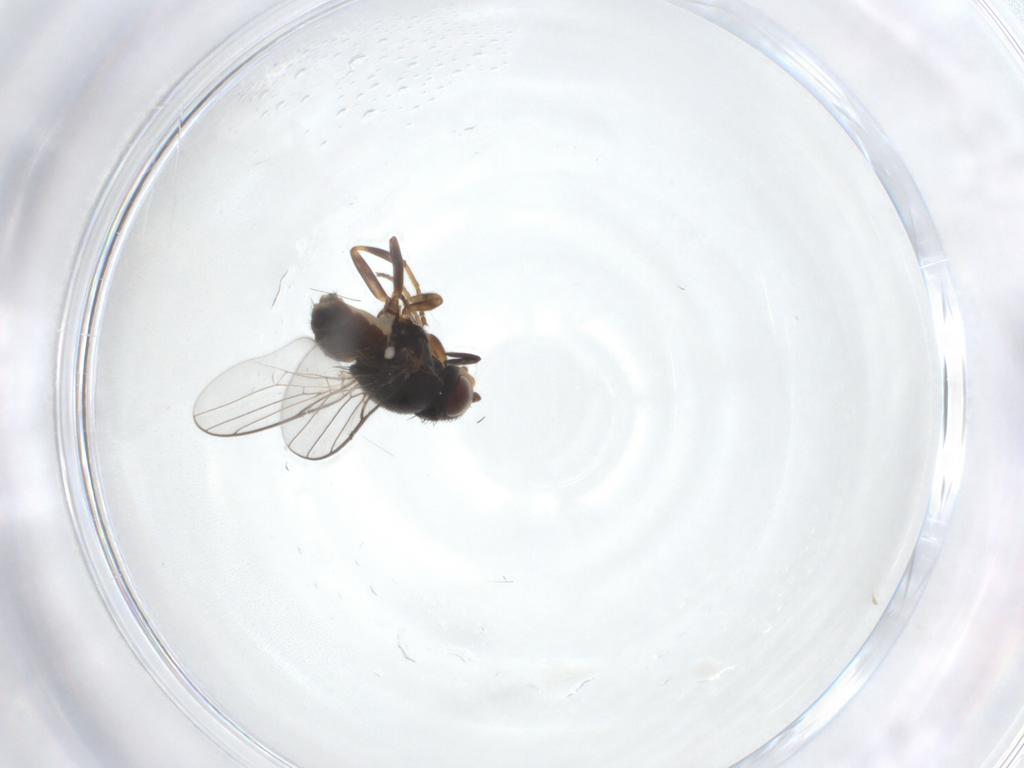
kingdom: Animalia
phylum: Arthropoda
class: Insecta
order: Diptera
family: Chloropidae
